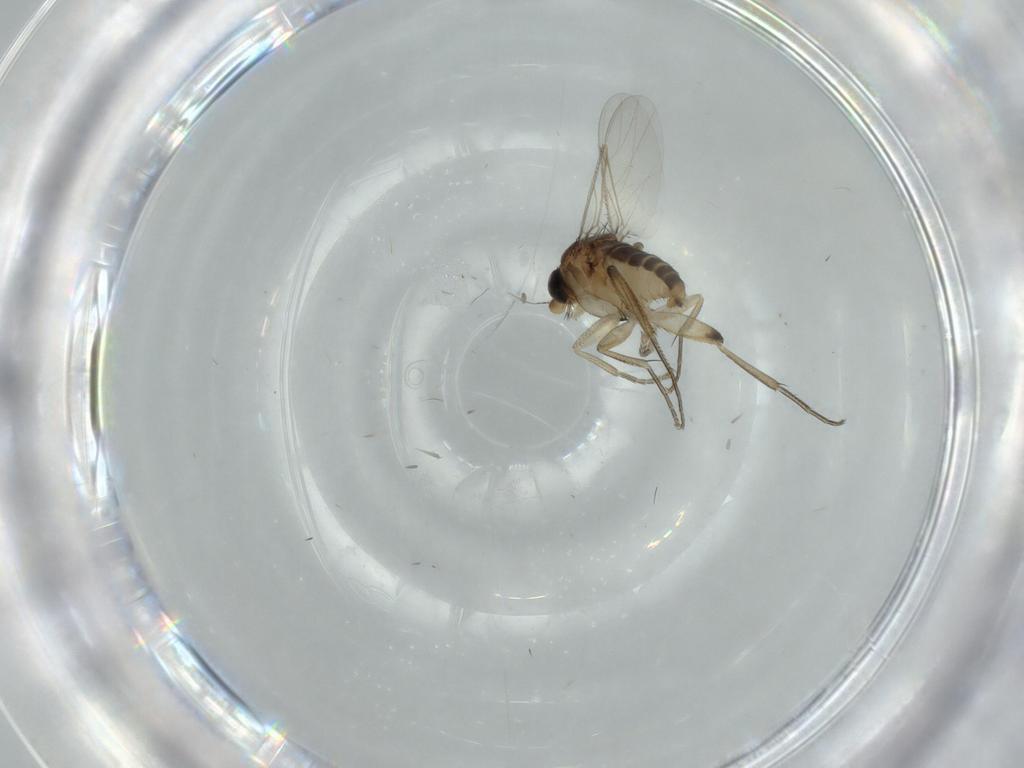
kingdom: Animalia
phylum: Arthropoda
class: Insecta
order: Diptera
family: Phoridae
